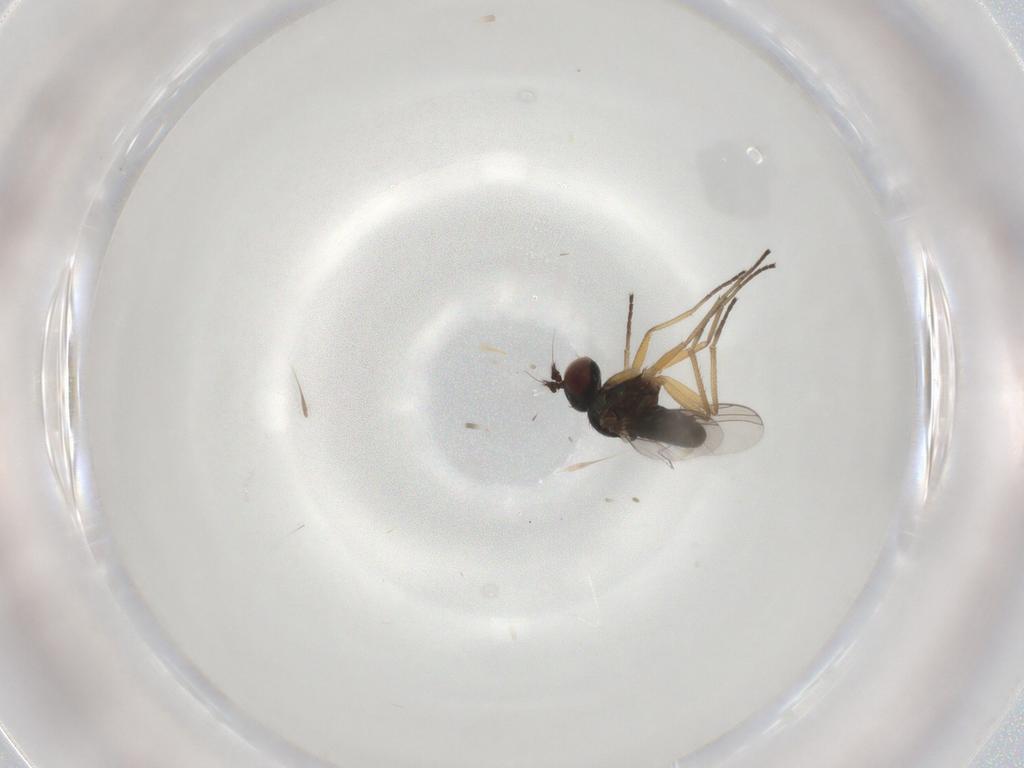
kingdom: Animalia
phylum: Arthropoda
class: Insecta
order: Diptera
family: Dolichopodidae
